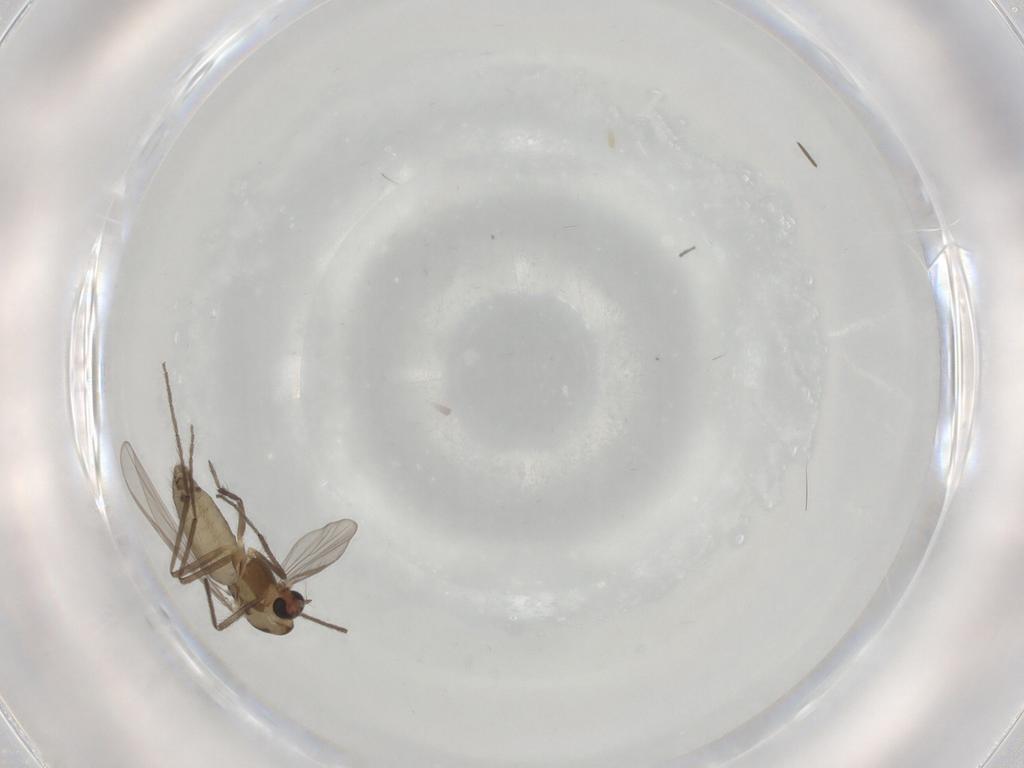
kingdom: Animalia
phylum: Arthropoda
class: Insecta
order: Diptera
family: Chironomidae
